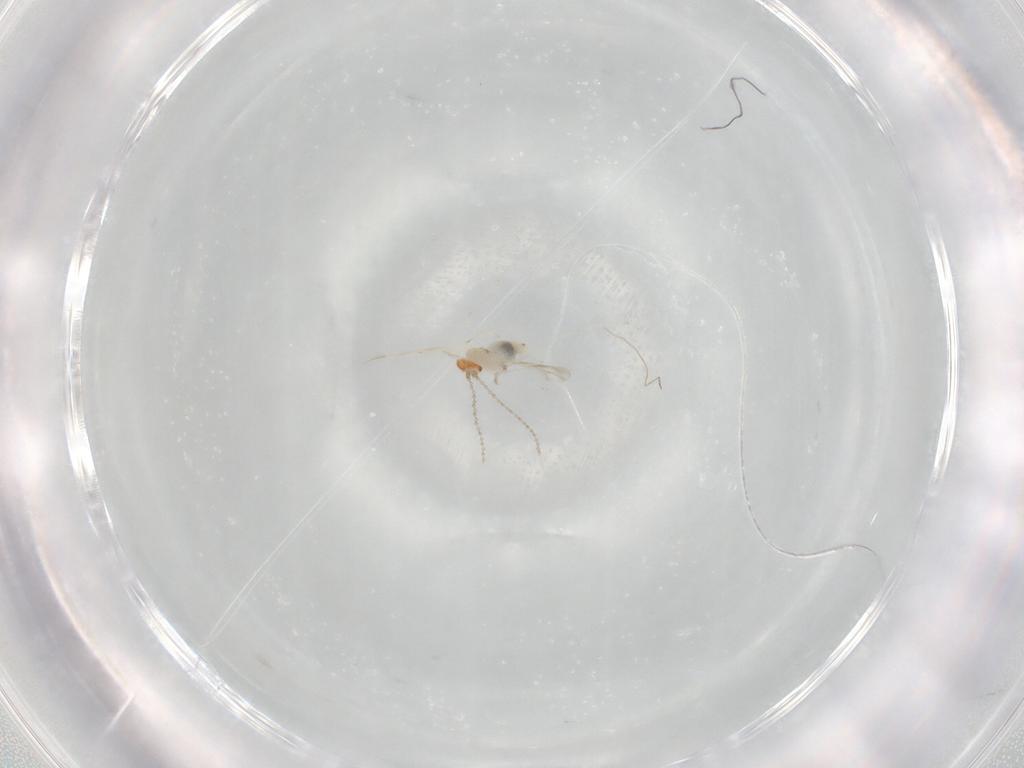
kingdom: Animalia
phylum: Arthropoda
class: Insecta
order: Diptera
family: Cecidomyiidae
